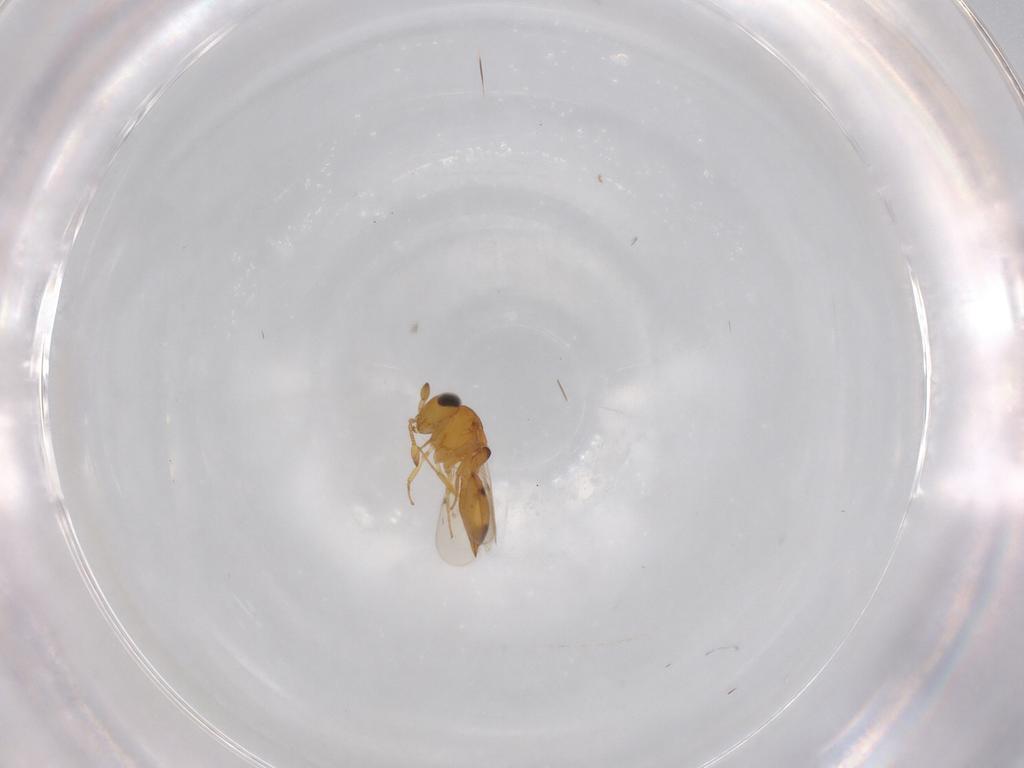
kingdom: Animalia
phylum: Arthropoda
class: Insecta
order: Hymenoptera
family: Scelionidae
